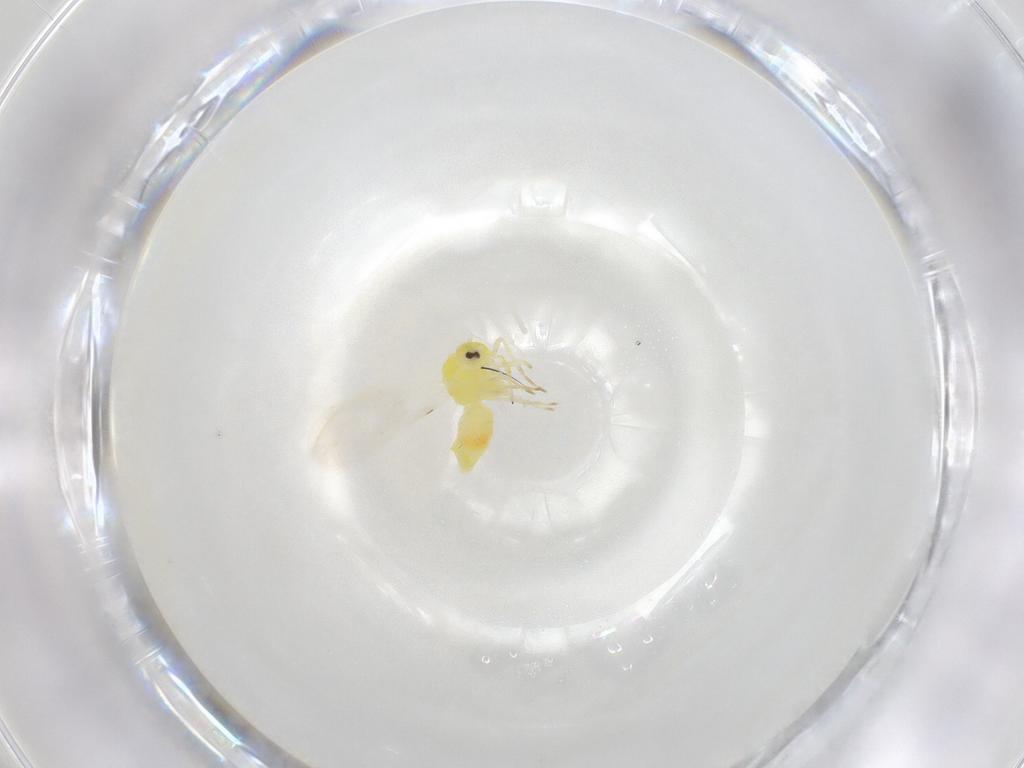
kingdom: Animalia
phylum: Arthropoda
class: Insecta
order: Hemiptera
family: Aleyrodidae
